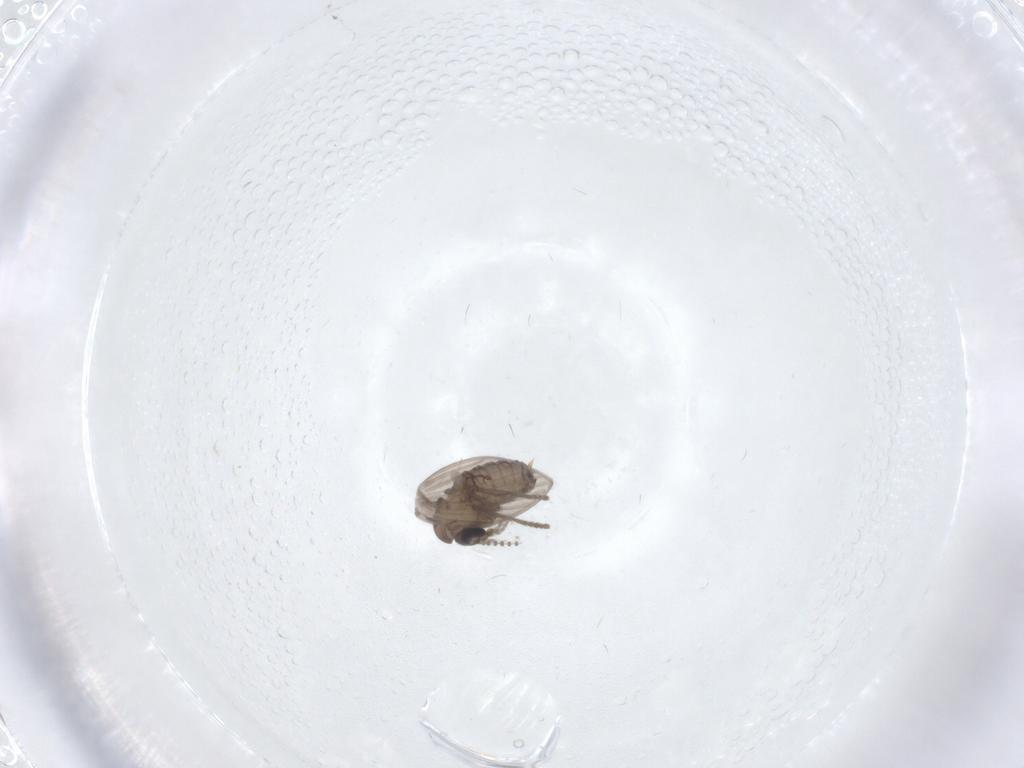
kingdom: Animalia
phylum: Arthropoda
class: Insecta
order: Diptera
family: Psychodidae
